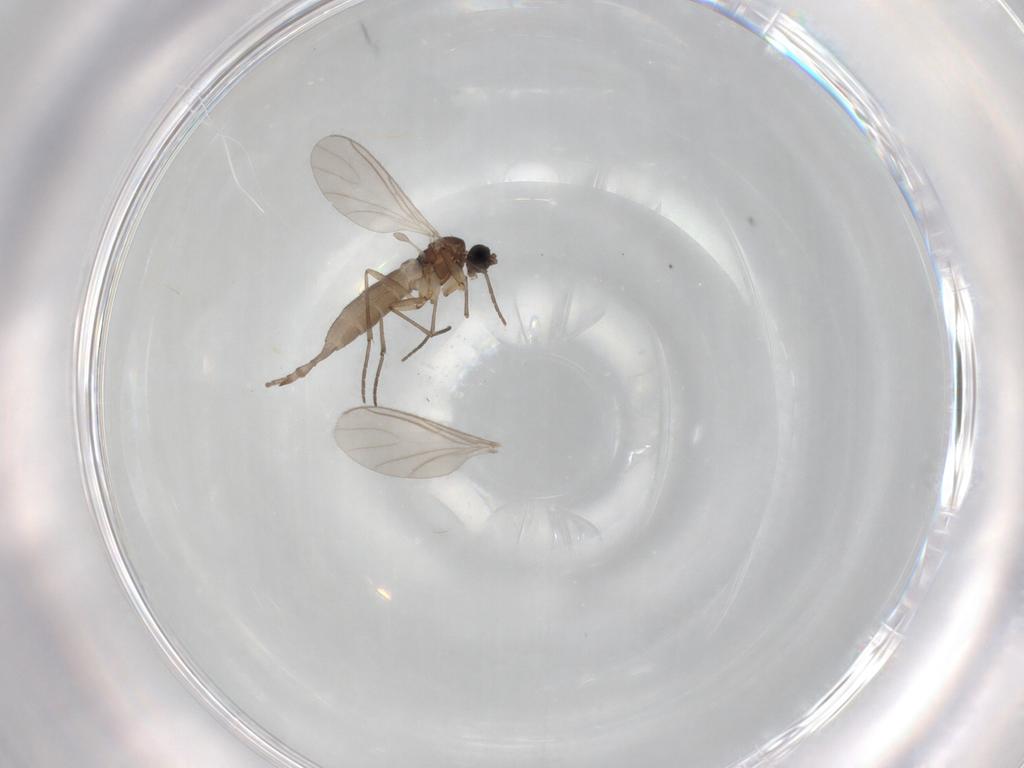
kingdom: Animalia
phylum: Arthropoda
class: Insecta
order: Diptera
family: Sciaridae
